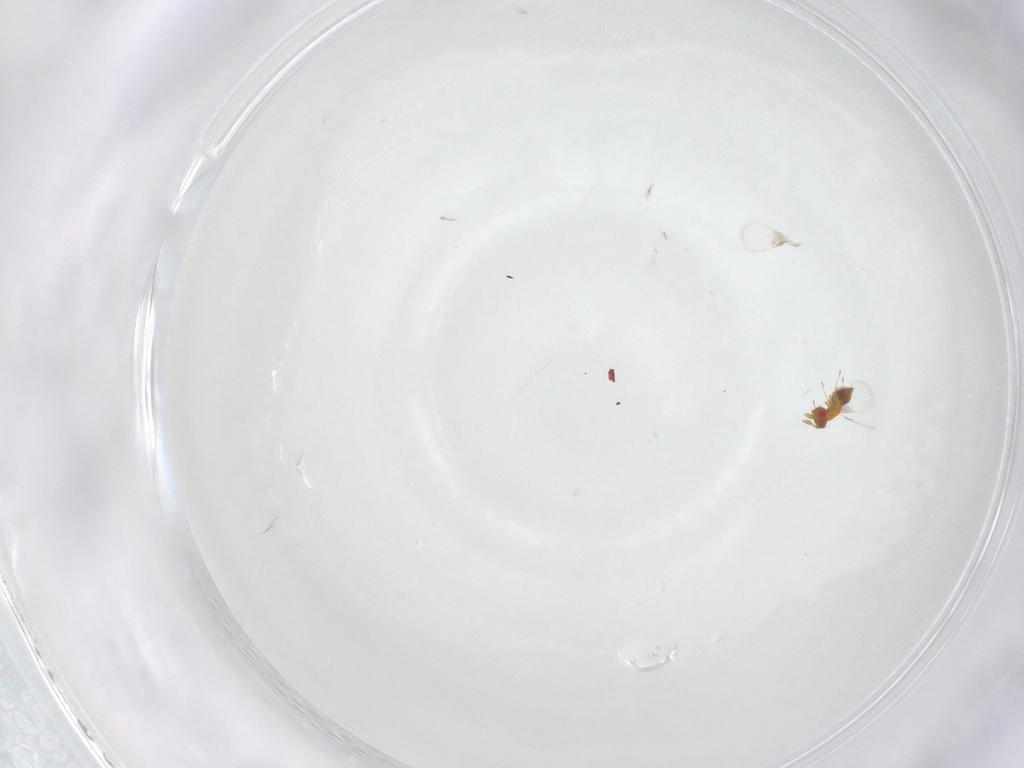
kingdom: Animalia
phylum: Arthropoda
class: Insecta
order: Hymenoptera
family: Trichogrammatidae
